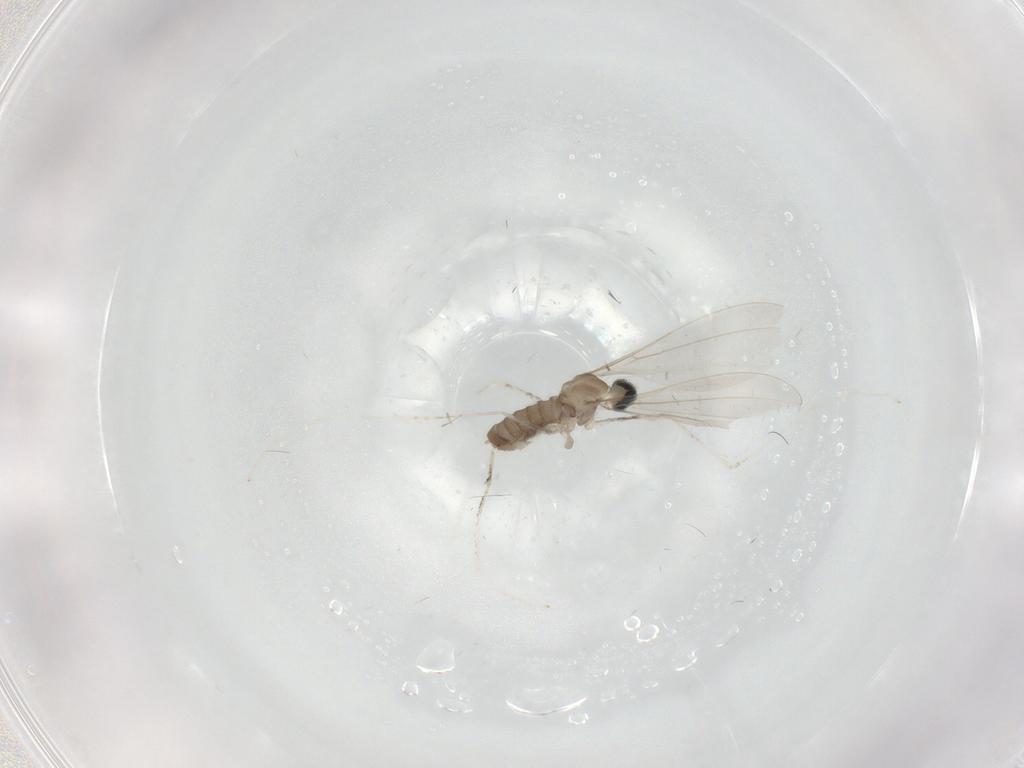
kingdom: Animalia
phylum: Arthropoda
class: Insecta
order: Diptera
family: Cecidomyiidae
